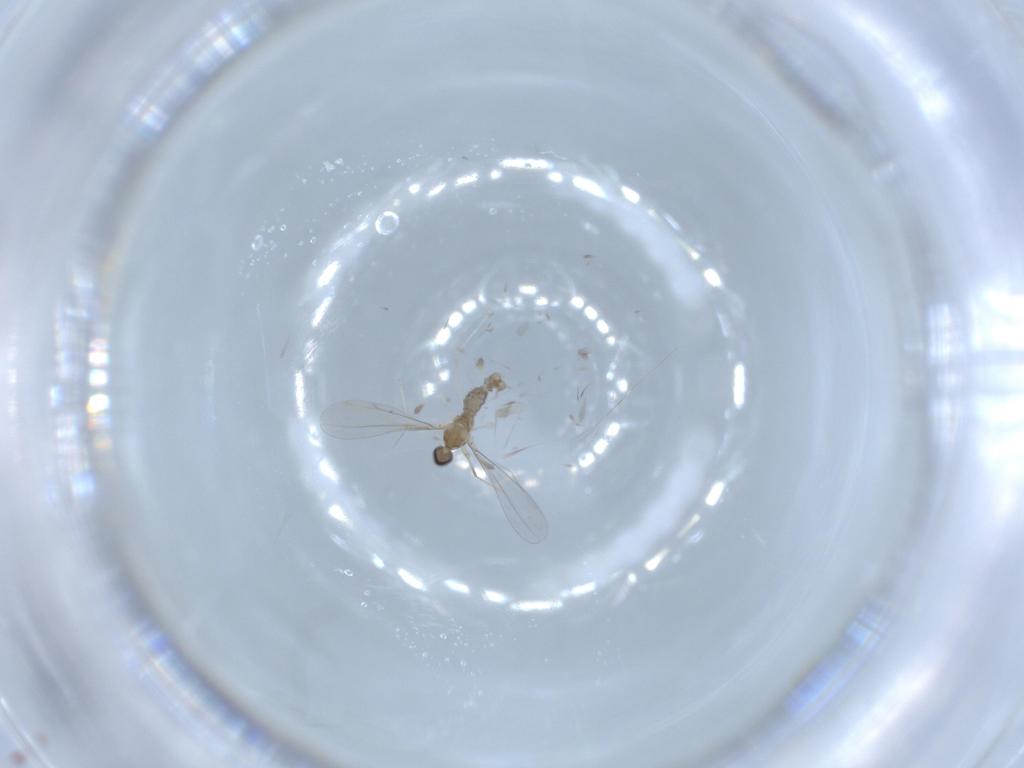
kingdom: Animalia
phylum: Arthropoda
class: Insecta
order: Diptera
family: Cecidomyiidae
